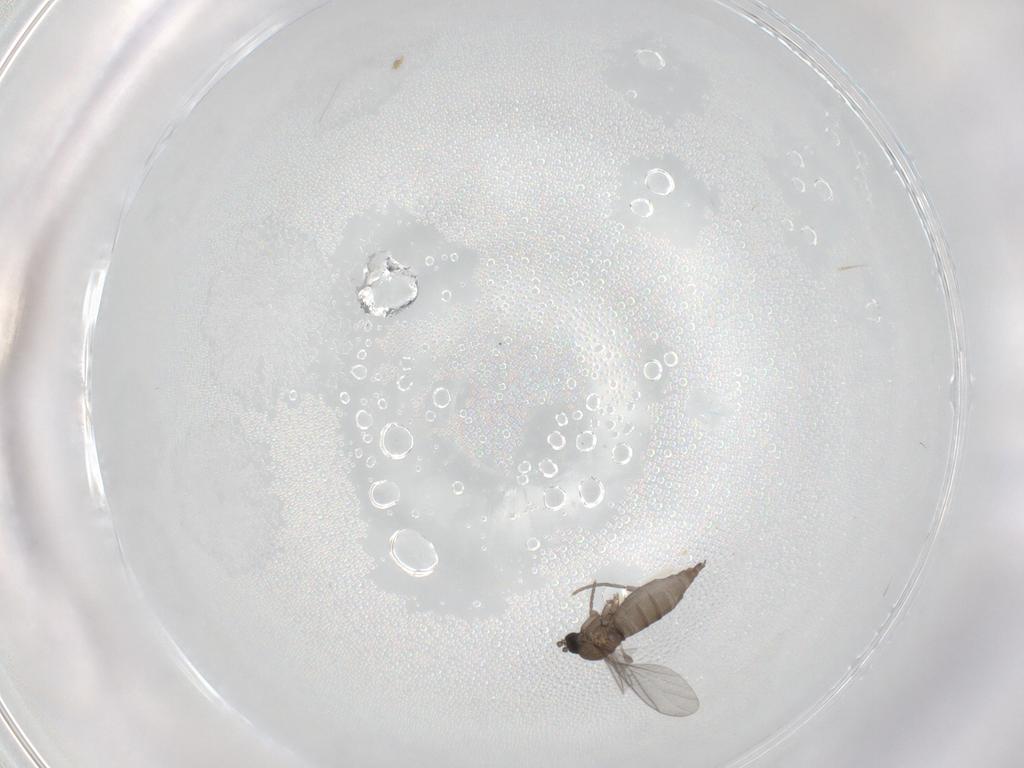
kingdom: Animalia
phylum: Arthropoda
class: Insecta
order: Diptera
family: Sciaridae
